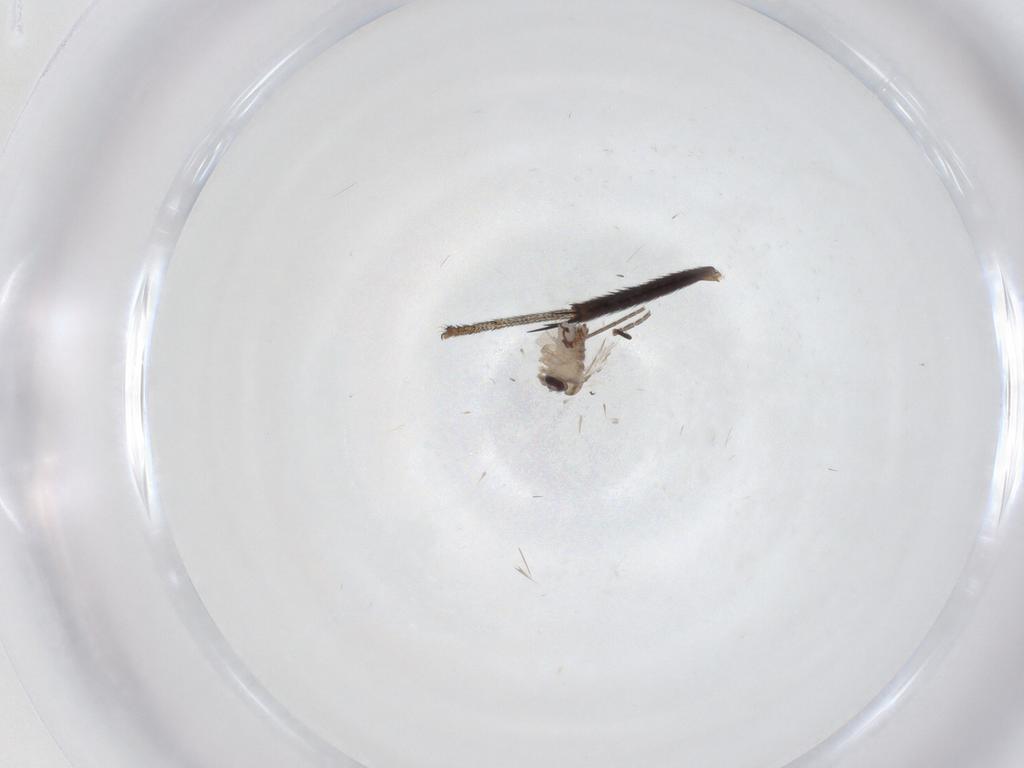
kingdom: Animalia
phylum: Arthropoda
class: Insecta
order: Diptera
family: Psychodidae
